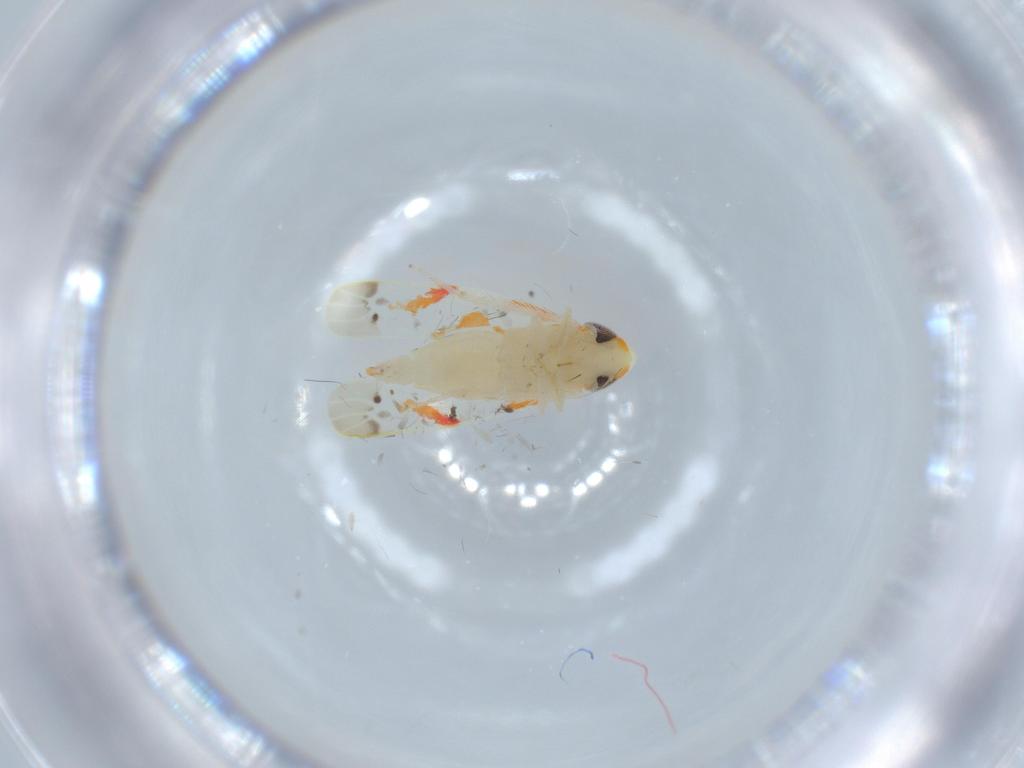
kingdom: Animalia
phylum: Arthropoda
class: Insecta
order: Hemiptera
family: Cicadellidae
